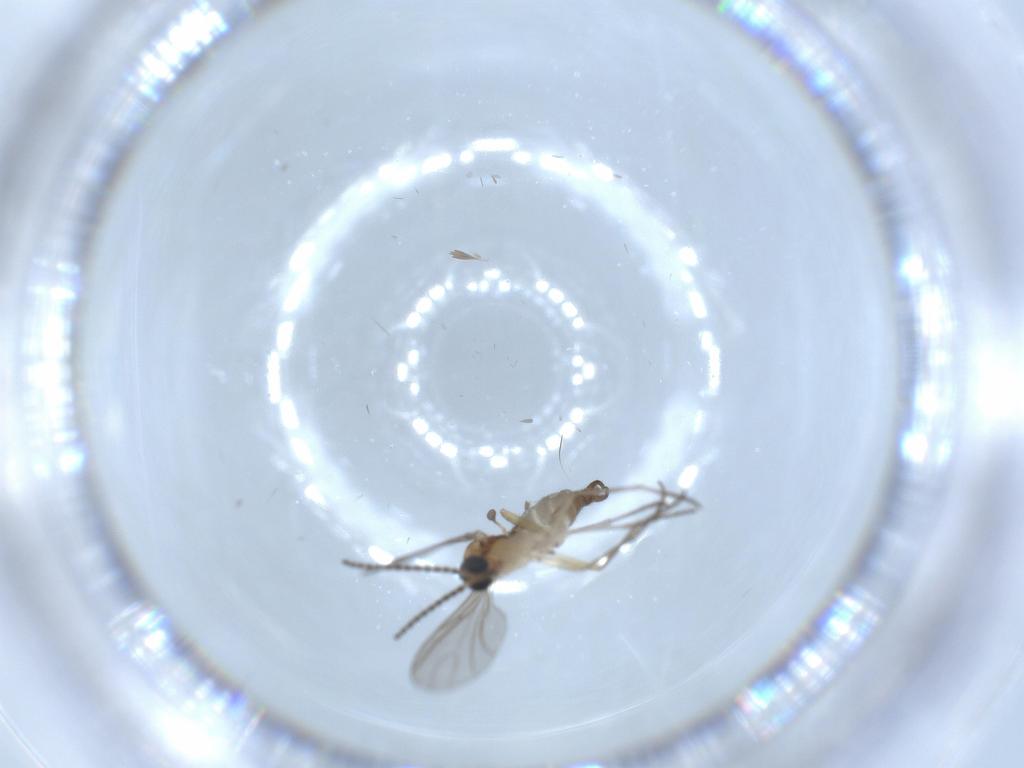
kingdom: Animalia
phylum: Arthropoda
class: Insecta
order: Diptera
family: Sciaridae
